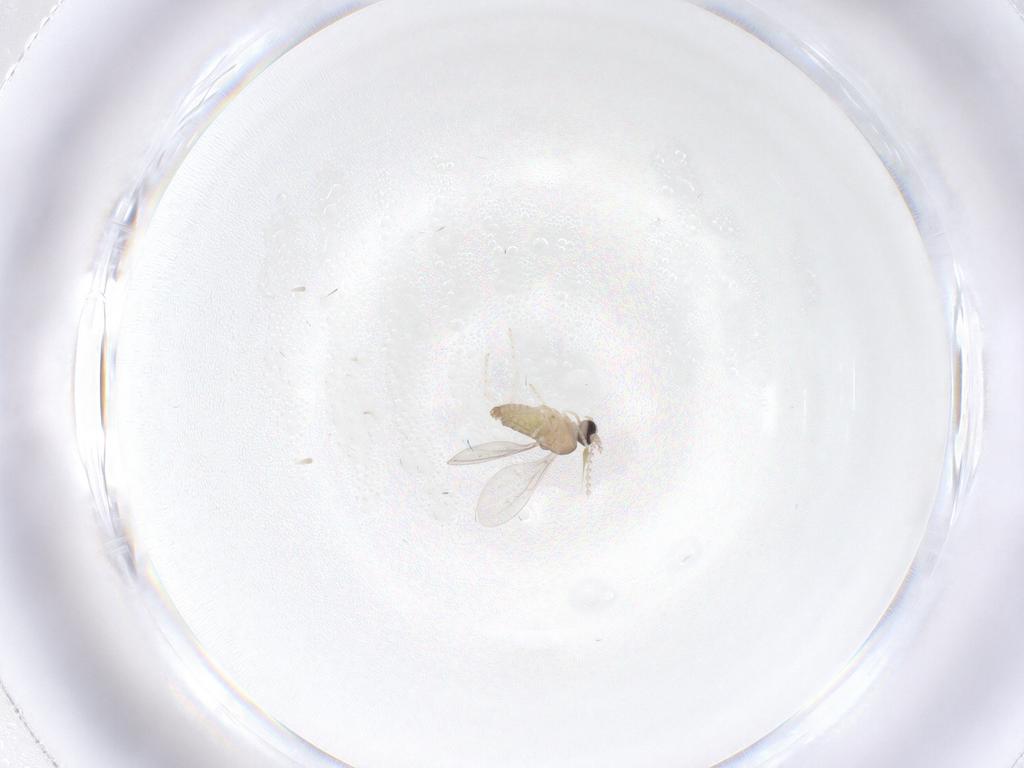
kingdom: Animalia
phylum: Arthropoda
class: Insecta
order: Diptera
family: Cecidomyiidae
